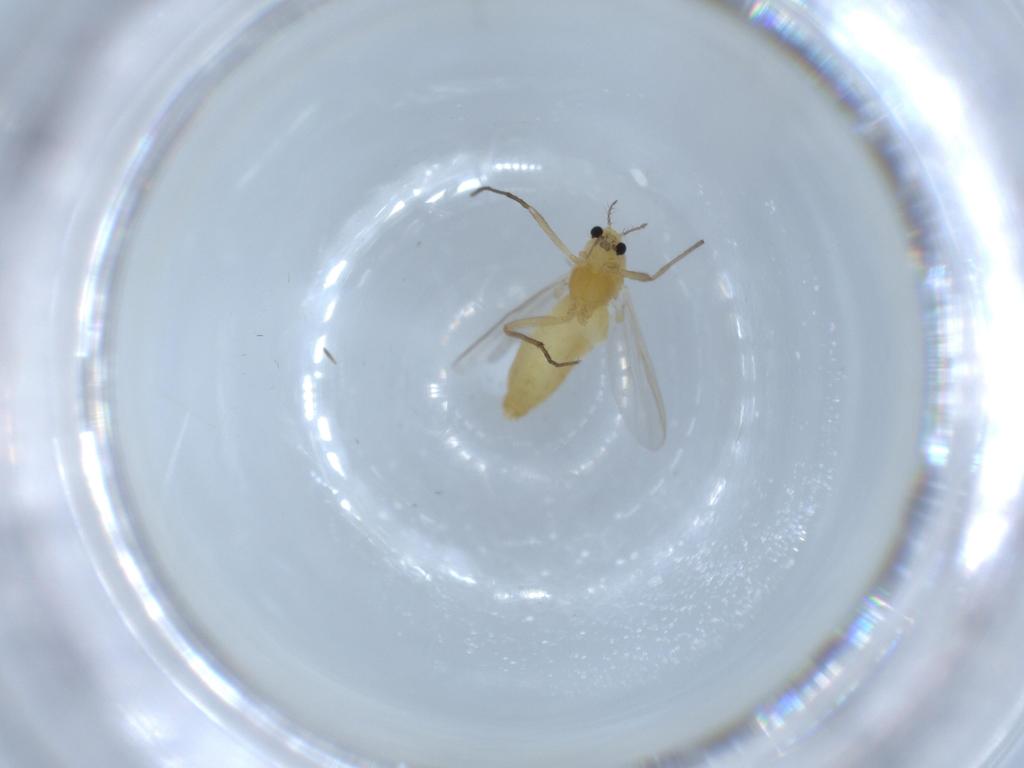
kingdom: Animalia
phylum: Arthropoda
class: Insecta
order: Diptera
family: Chironomidae
